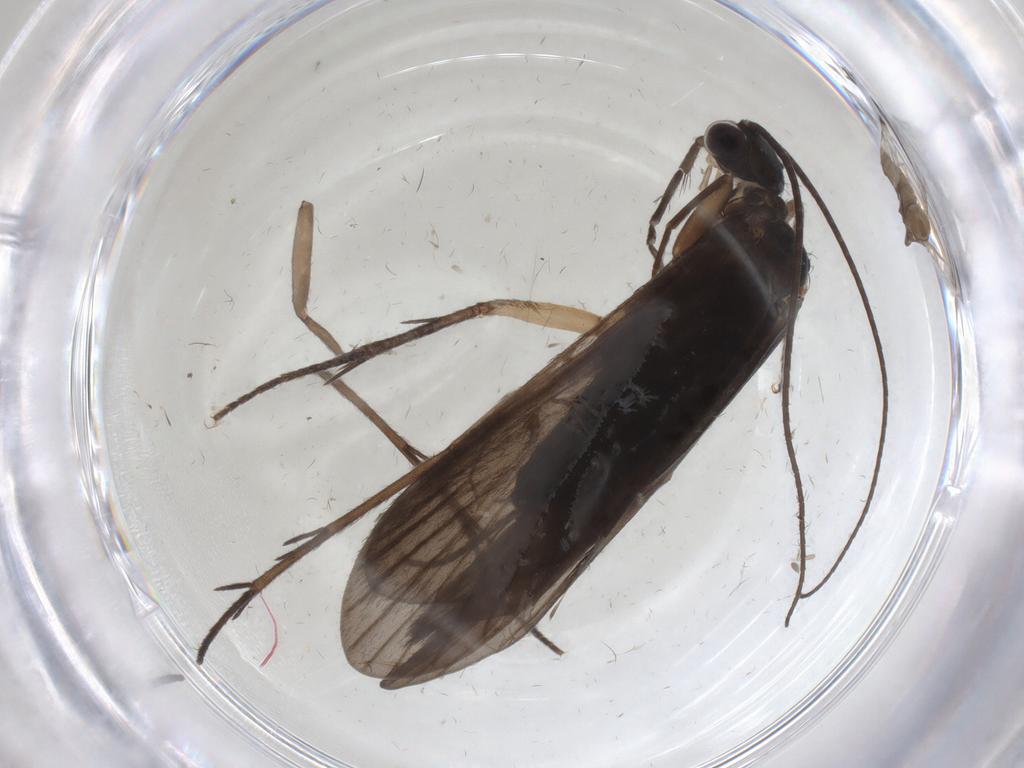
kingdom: Animalia
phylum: Arthropoda
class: Insecta
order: Trichoptera
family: Philopotamidae
